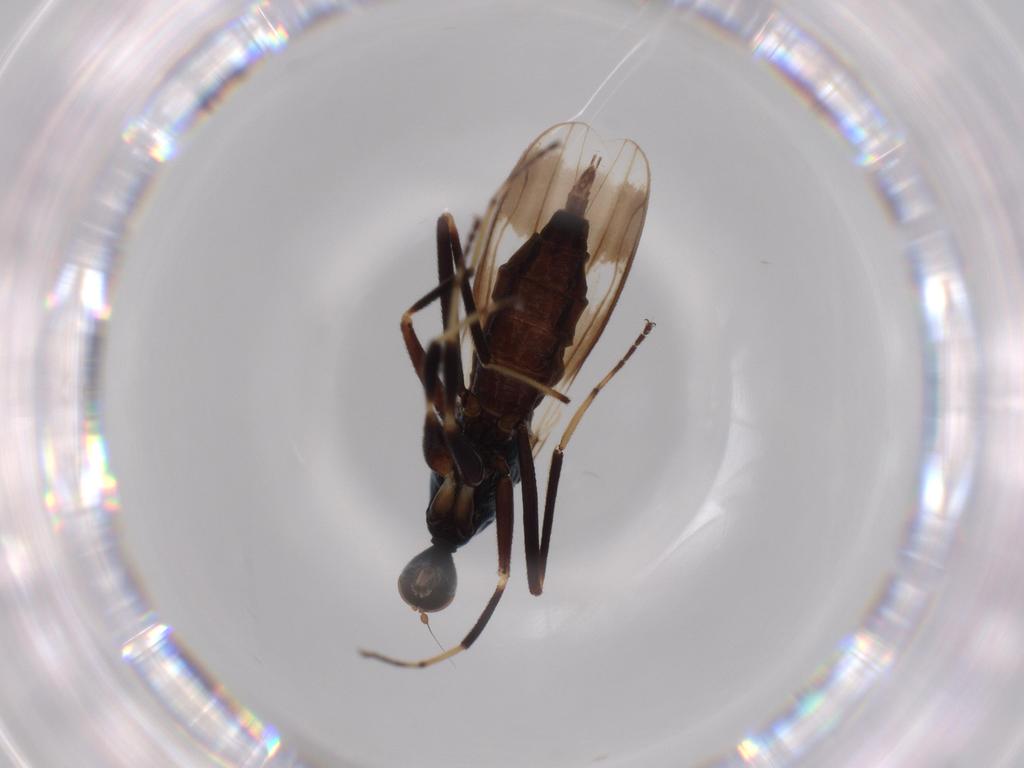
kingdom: Animalia
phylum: Arthropoda
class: Insecta
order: Diptera
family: Hybotidae
